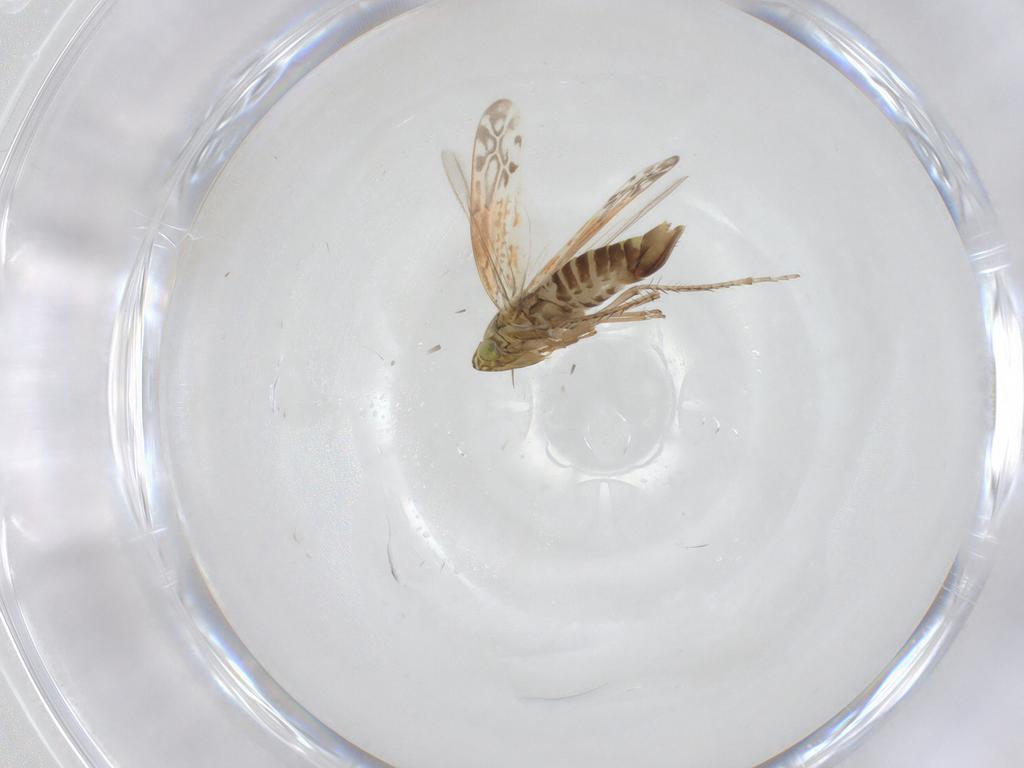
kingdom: Animalia
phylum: Arthropoda
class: Insecta
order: Hemiptera
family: Cicadellidae
